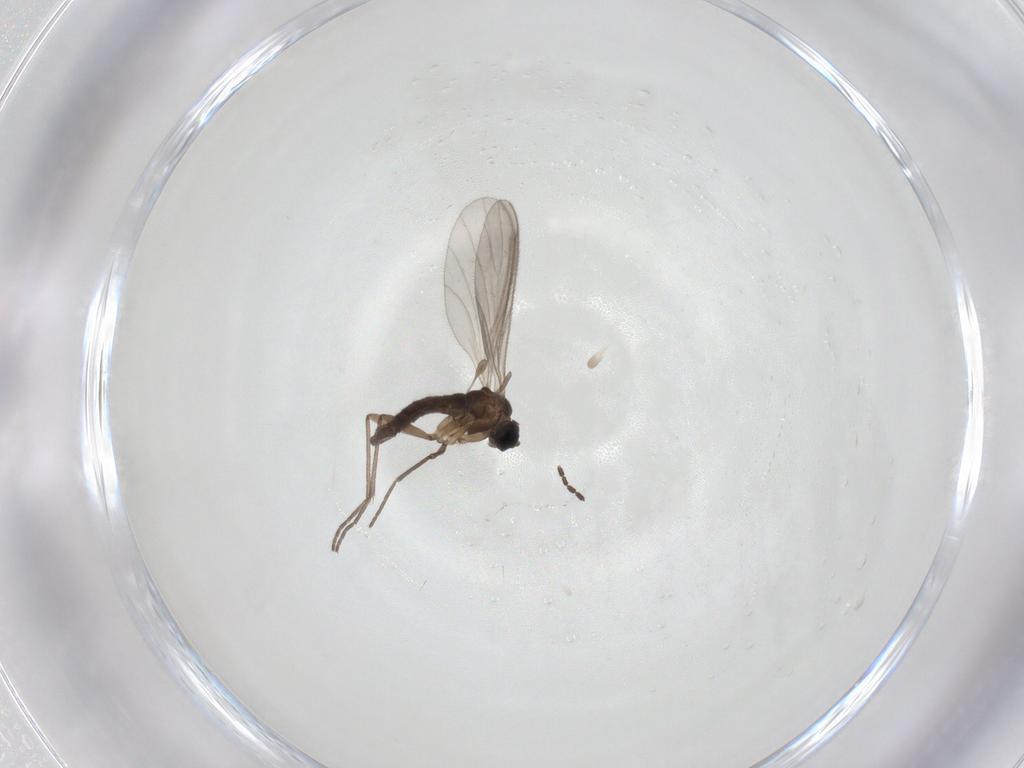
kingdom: Animalia
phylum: Arthropoda
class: Insecta
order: Diptera
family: Sciaridae
